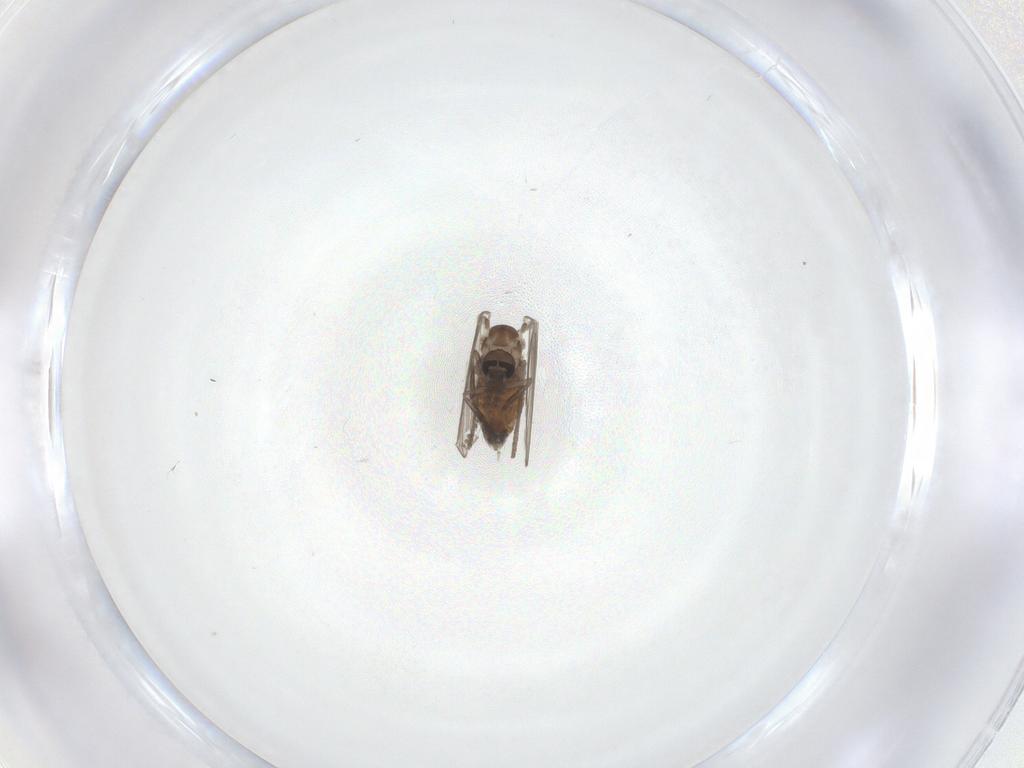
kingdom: Animalia
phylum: Arthropoda
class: Insecta
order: Diptera
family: Psychodidae
